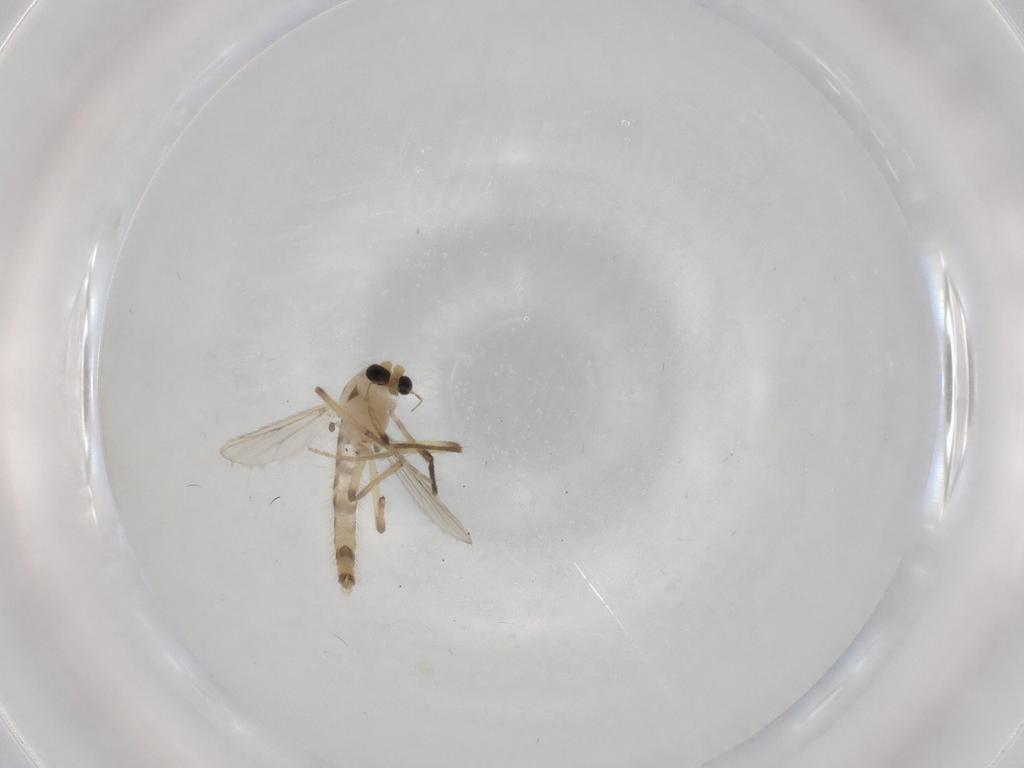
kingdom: Animalia
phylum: Arthropoda
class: Insecta
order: Diptera
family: Chironomidae
